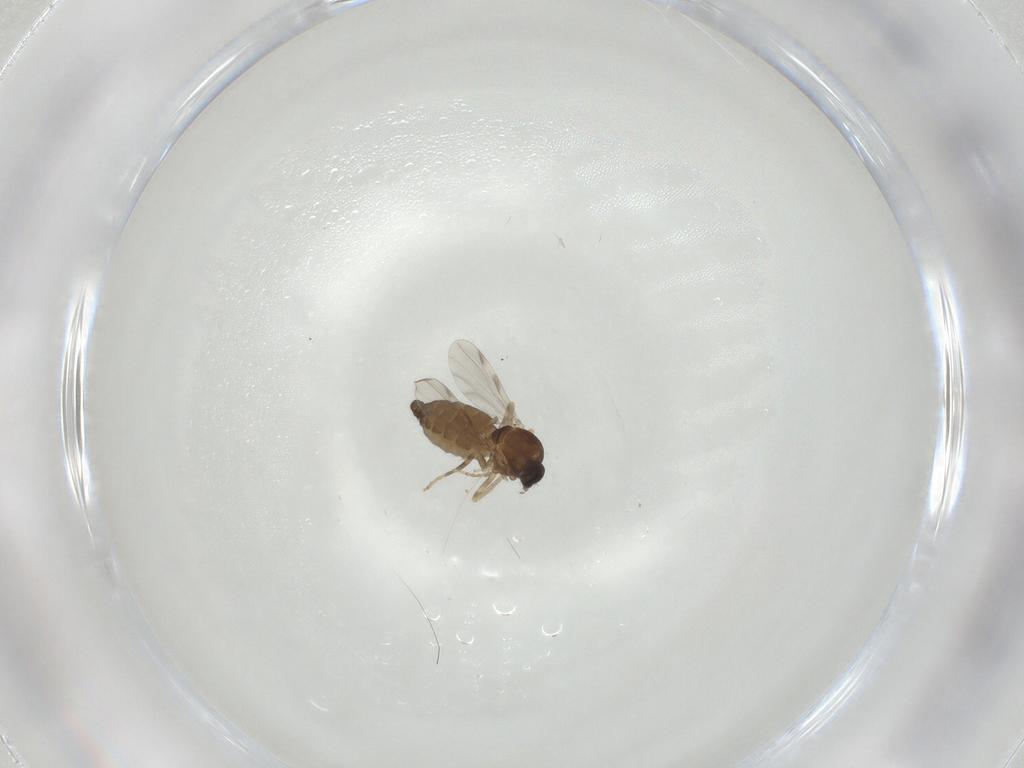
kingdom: Animalia
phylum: Arthropoda
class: Insecta
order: Diptera
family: Ceratopogonidae
